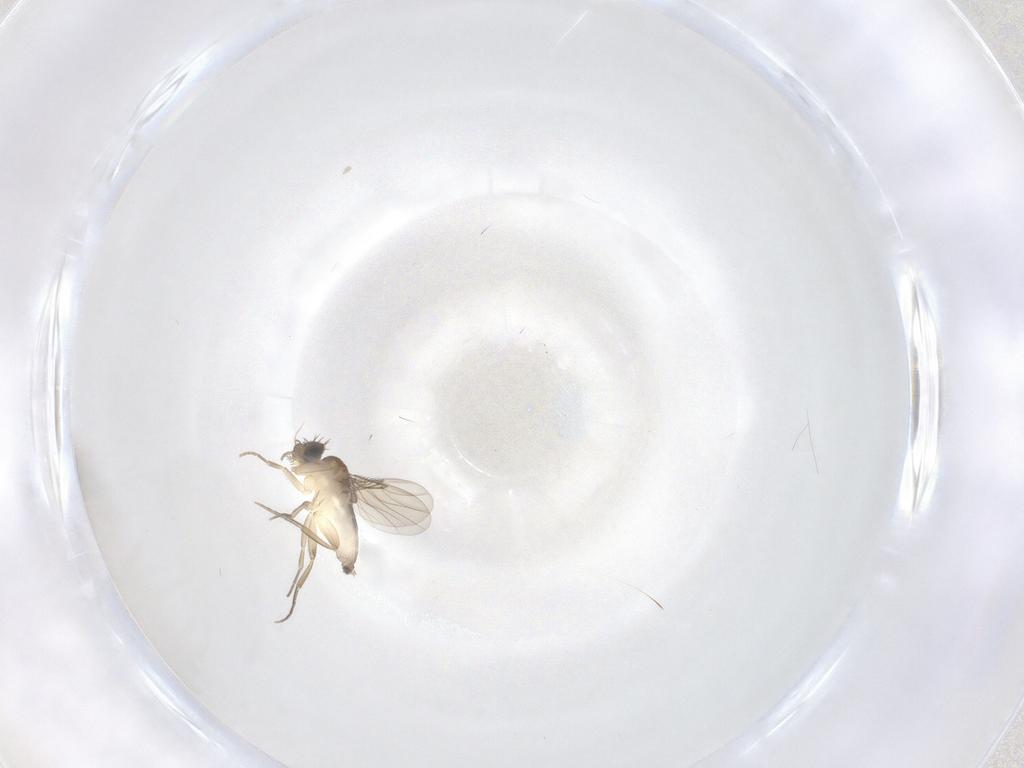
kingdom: Animalia
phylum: Arthropoda
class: Insecta
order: Diptera
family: Phoridae
